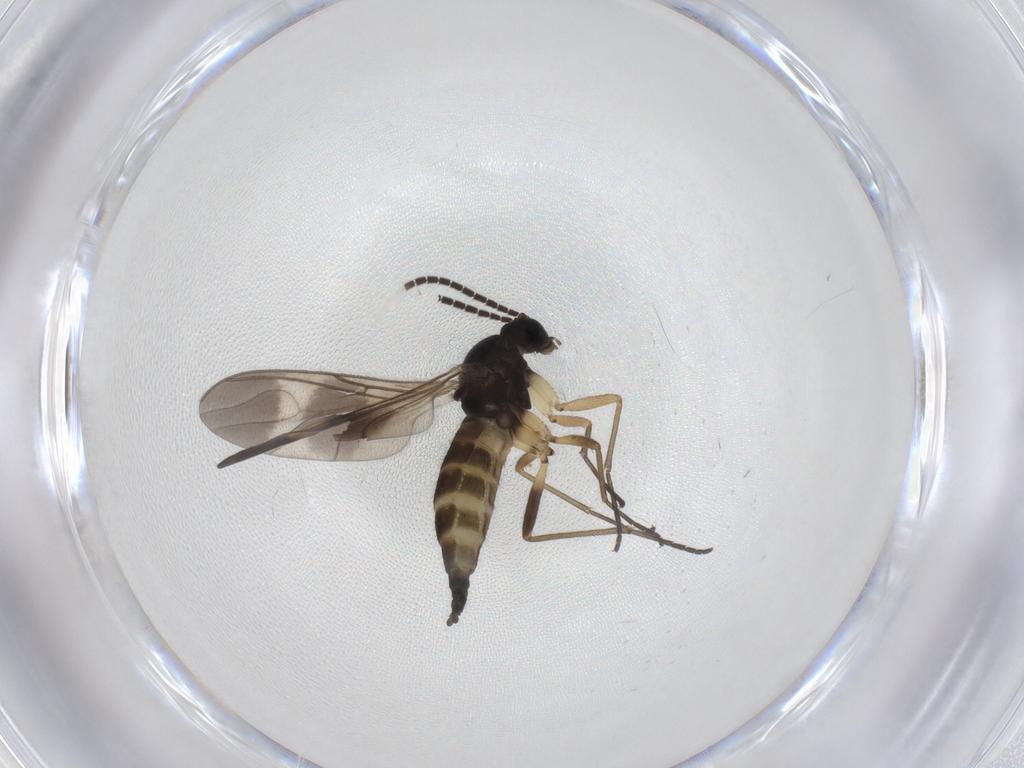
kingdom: Animalia
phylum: Arthropoda
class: Insecta
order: Diptera
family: Sciaridae
